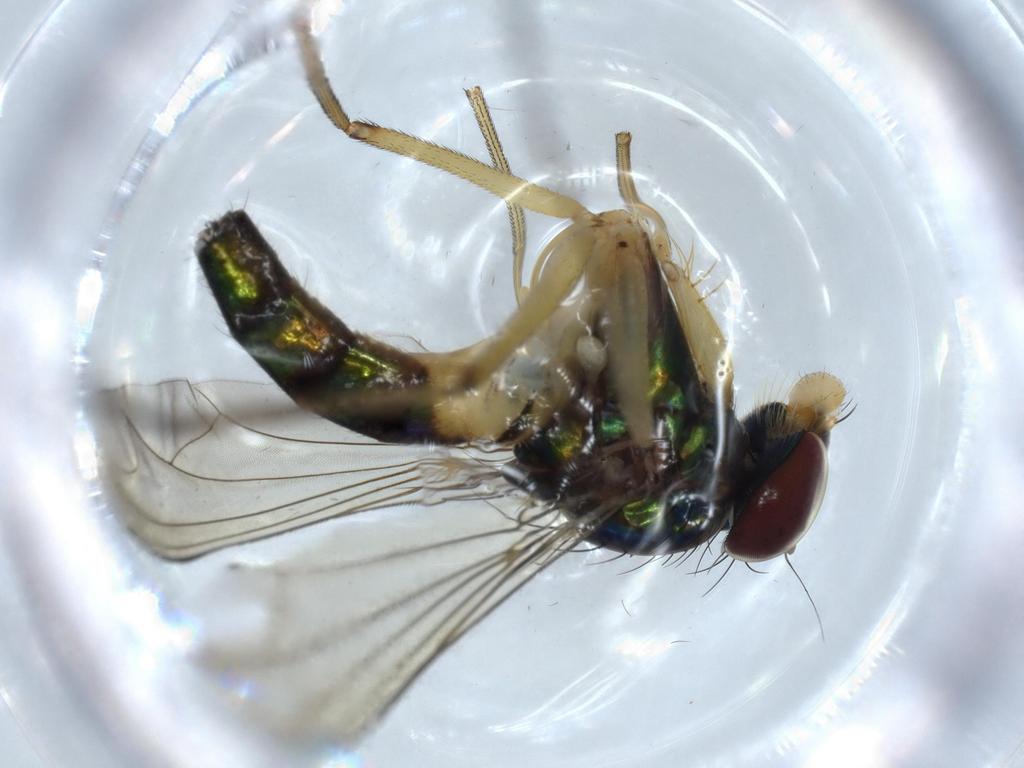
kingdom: Animalia
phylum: Arthropoda
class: Insecta
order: Diptera
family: Dolichopodidae
